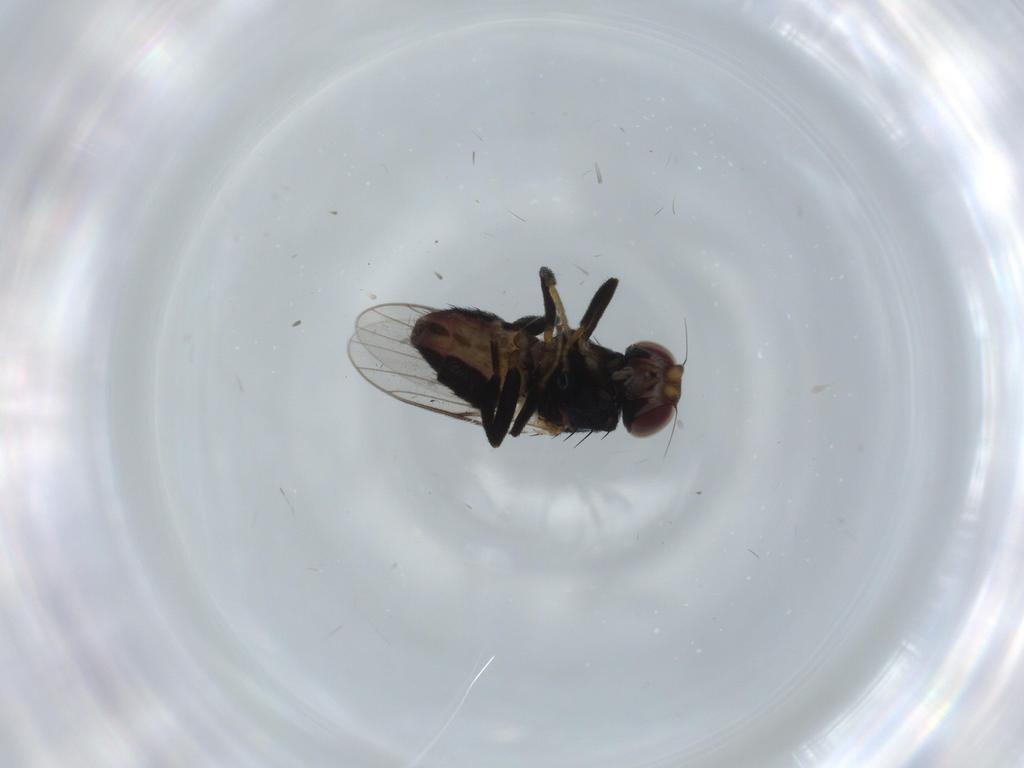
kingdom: Animalia
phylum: Arthropoda
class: Insecta
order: Diptera
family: Chloropidae
